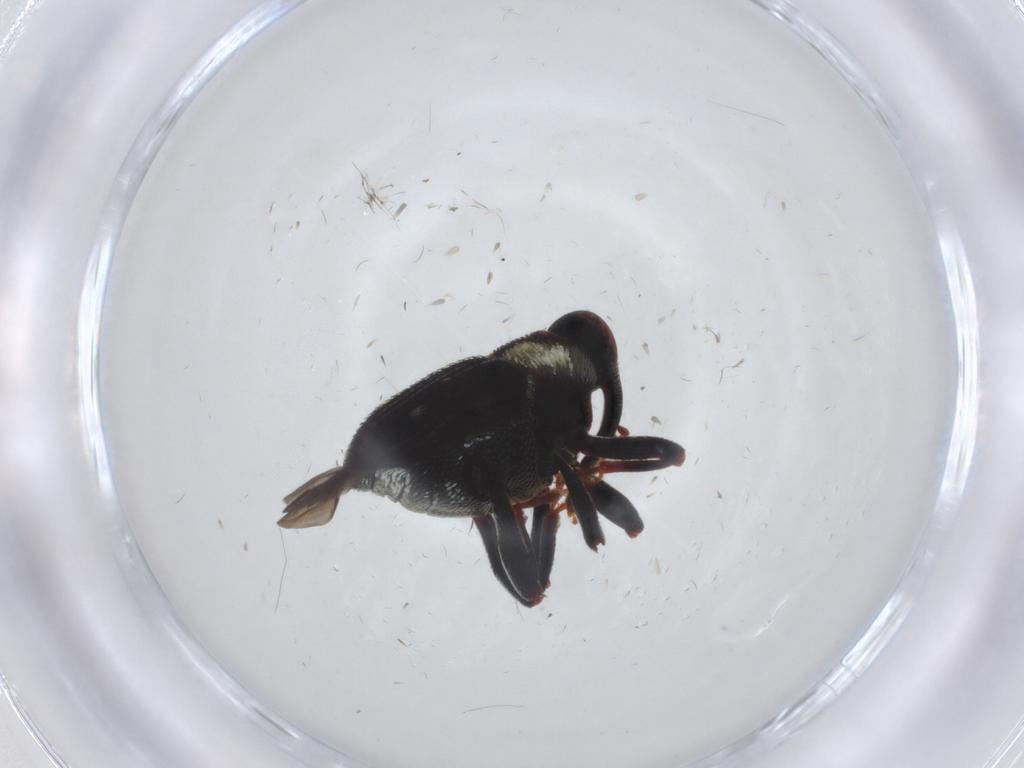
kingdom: Animalia
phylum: Arthropoda
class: Insecta
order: Coleoptera
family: Curculionidae
